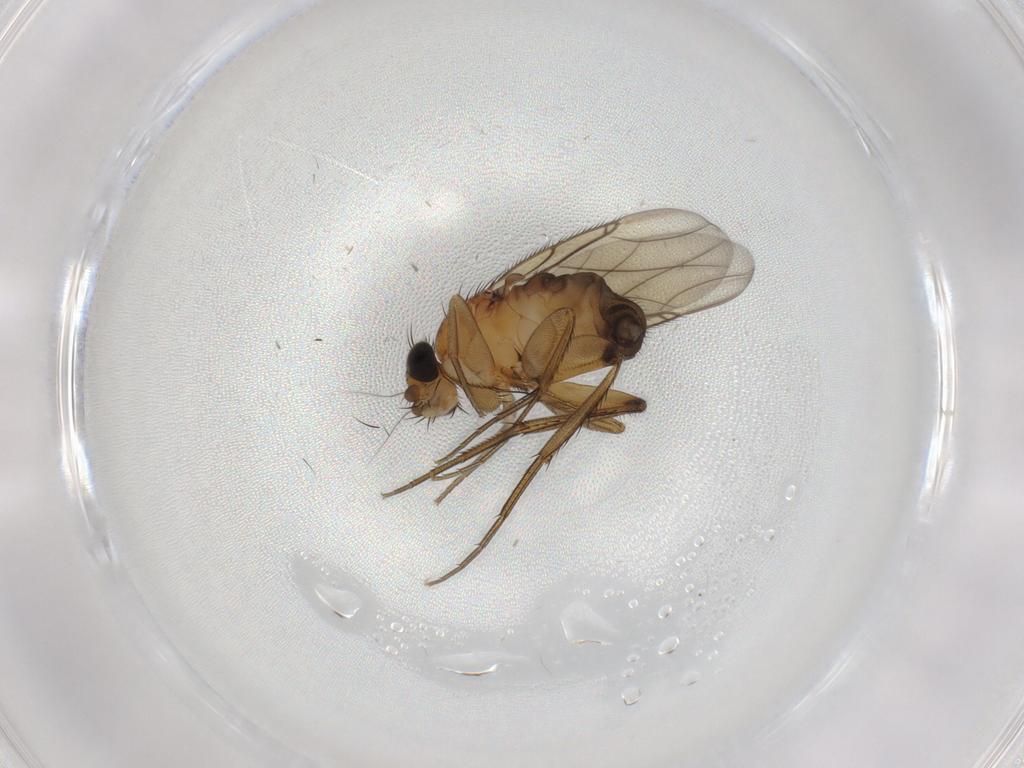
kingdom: Animalia
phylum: Arthropoda
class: Insecta
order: Diptera
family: Phoridae
